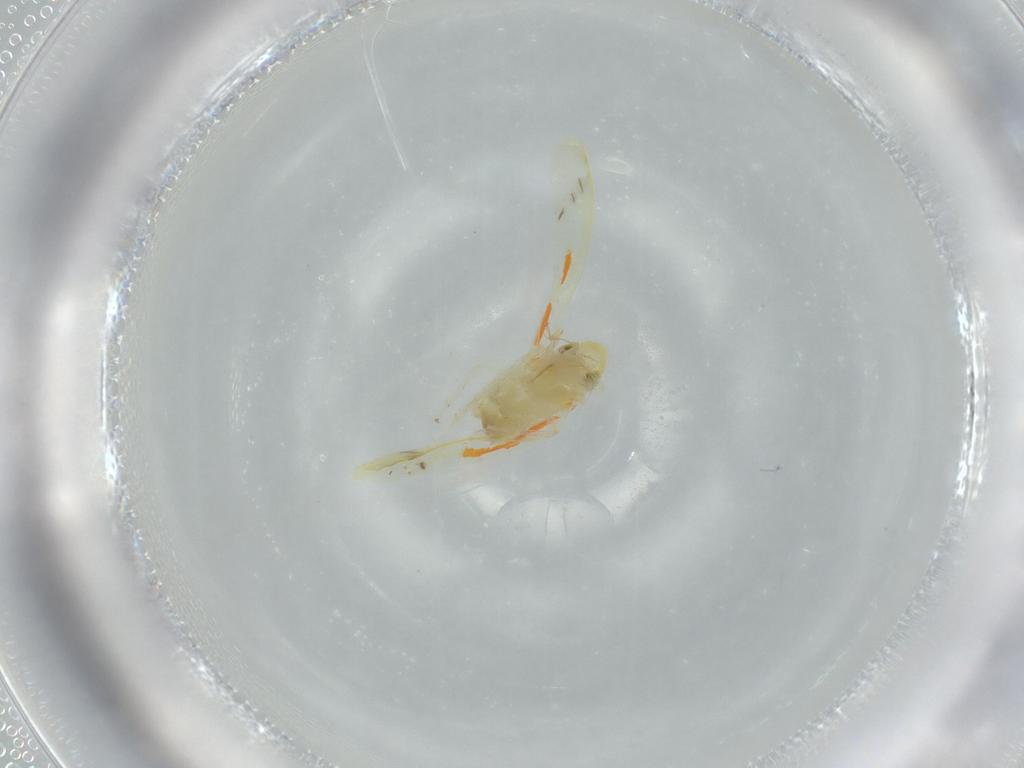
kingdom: Animalia
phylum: Arthropoda
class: Insecta
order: Hemiptera
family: Cicadellidae
